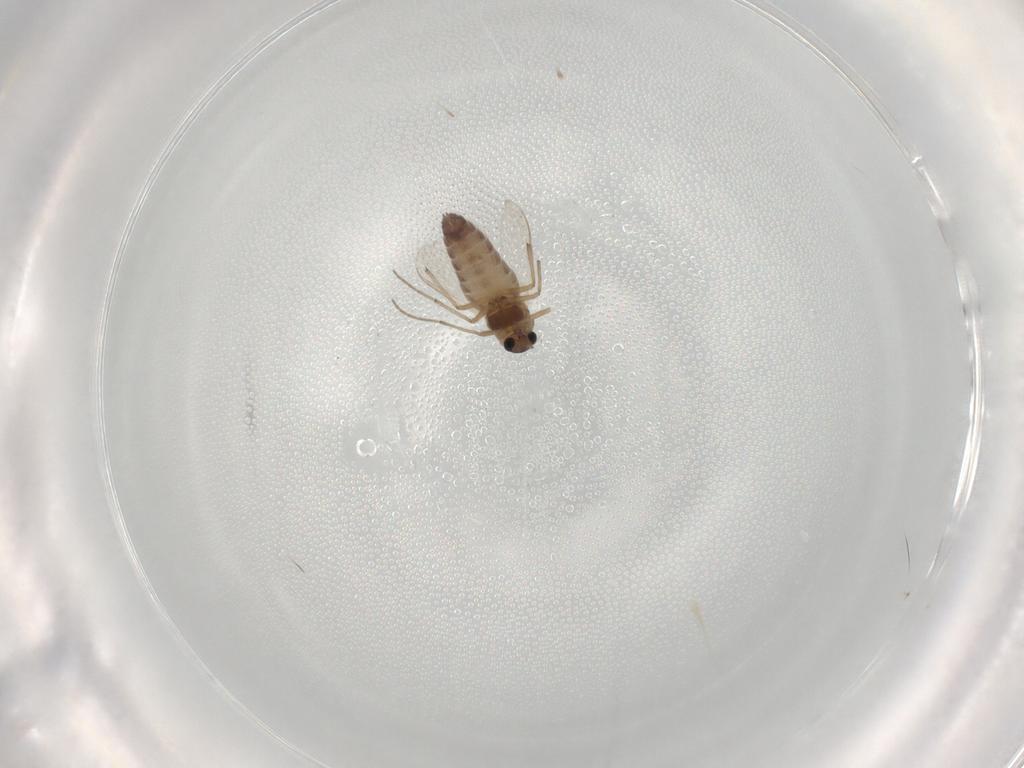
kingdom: Animalia
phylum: Arthropoda
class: Insecta
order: Diptera
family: Chironomidae
